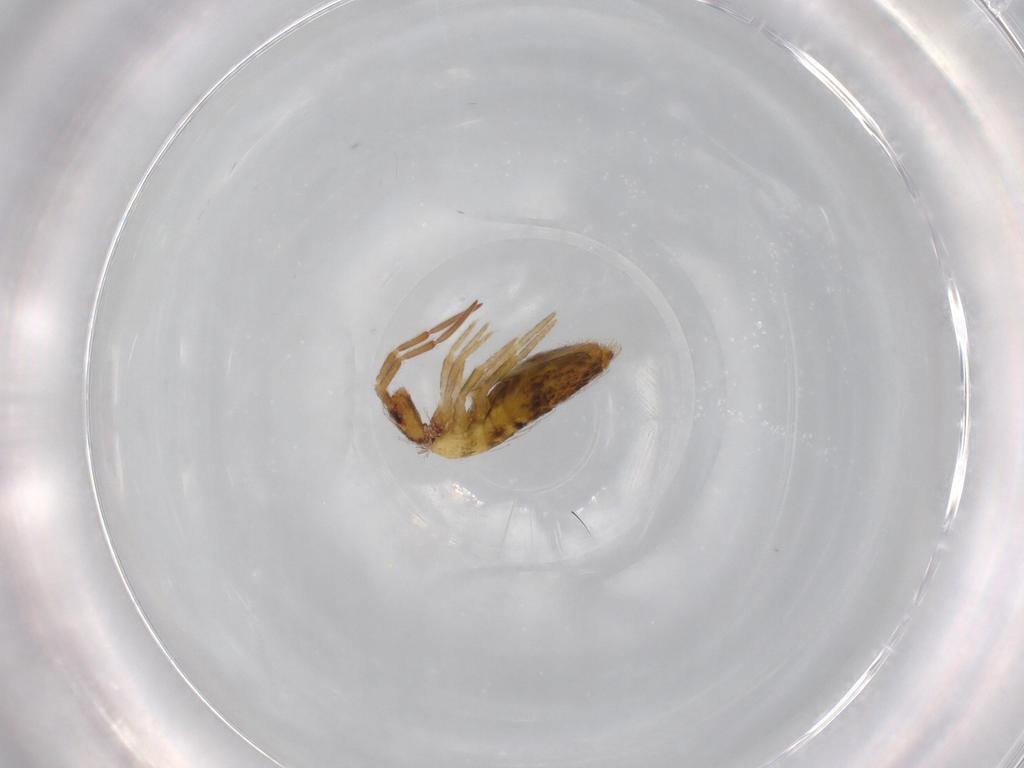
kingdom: Animalia
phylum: Arthropoda
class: Collembola
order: Entomobryomorpha
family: Entomobryidae
